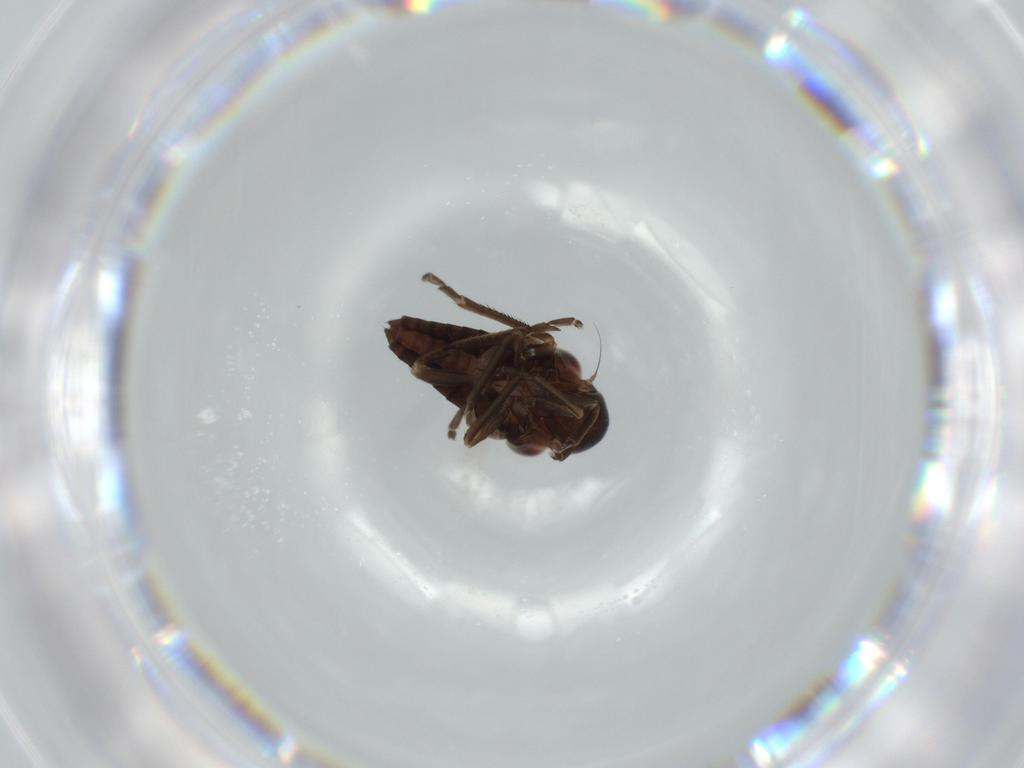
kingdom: Animalia
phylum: Arthropoda
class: Insecta
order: Hemiptera
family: Cicadellidae
